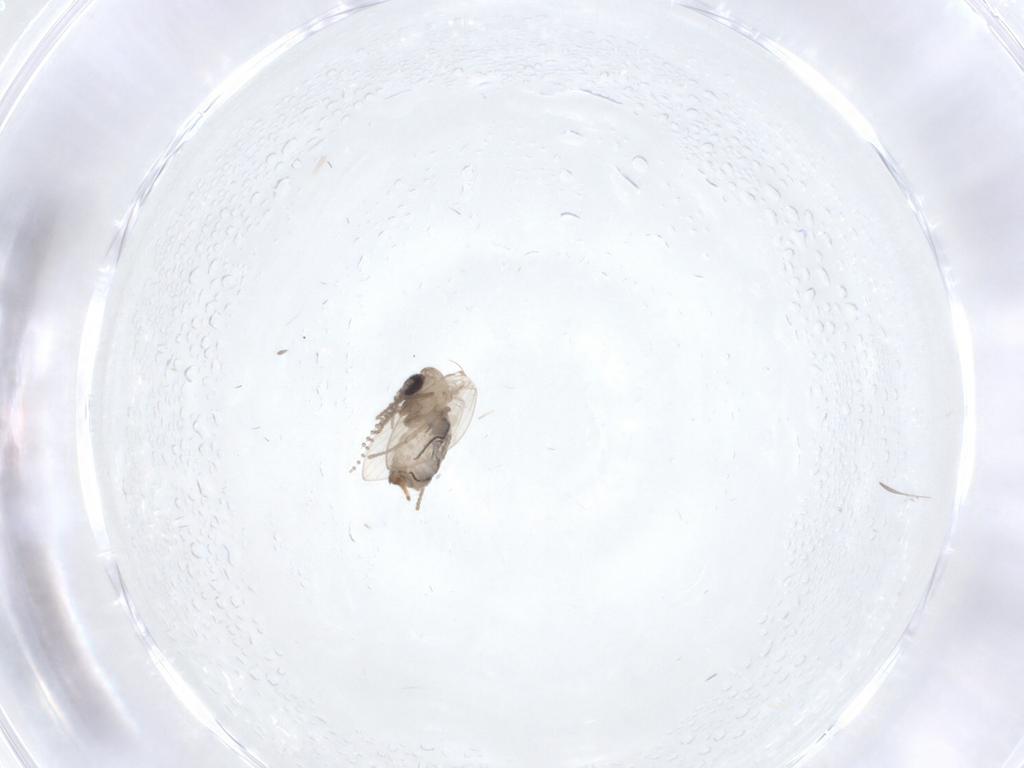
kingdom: Animalia
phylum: Arthropoda
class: Insecta
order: Diptera
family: Psychodidae
